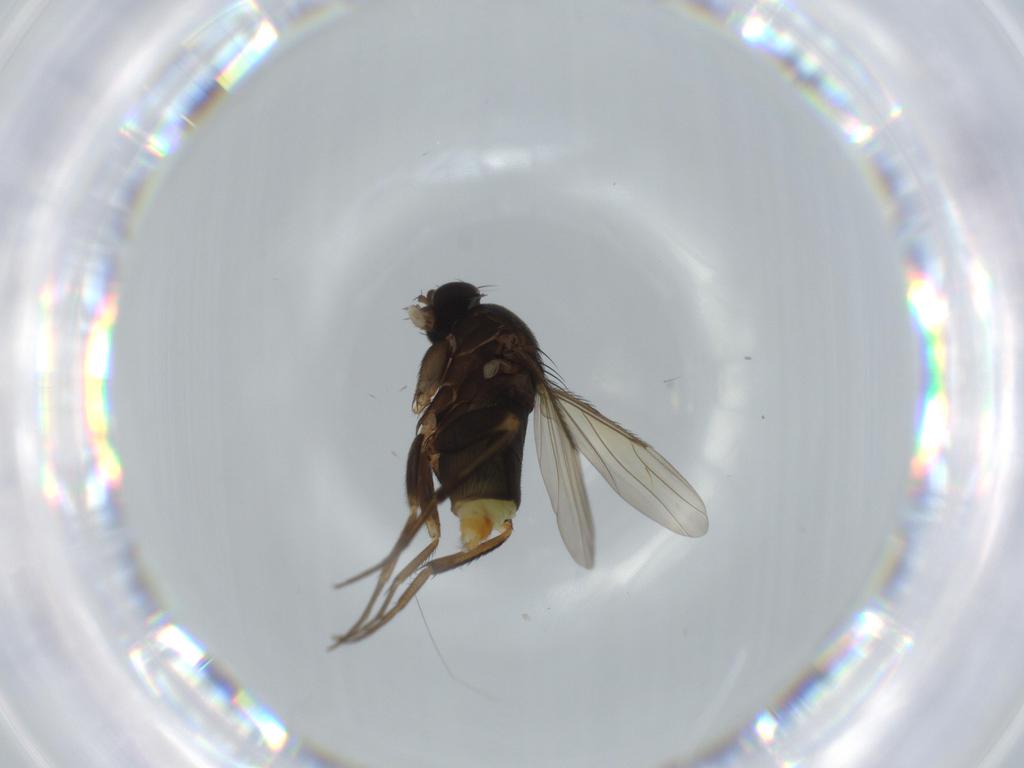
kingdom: Animalia
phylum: Arthropoda
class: Insecta
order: Diptera
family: Phoridae
